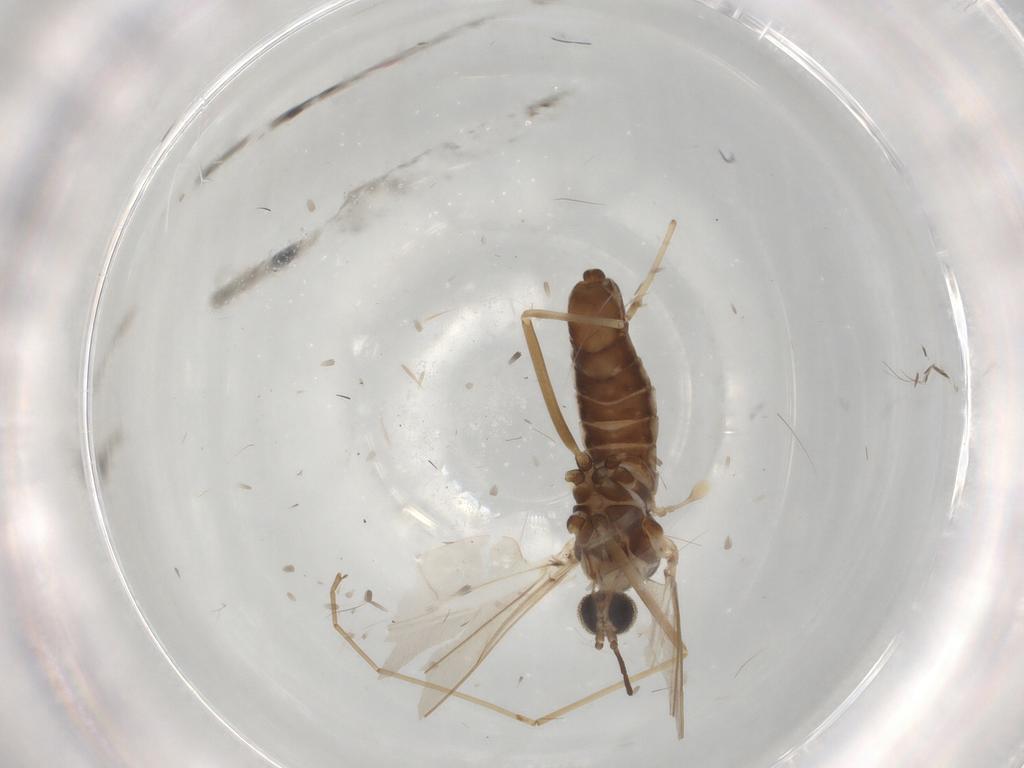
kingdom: Animalia
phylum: Arthropoda
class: Insecta
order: Diptera
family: Cecidomyiidae
